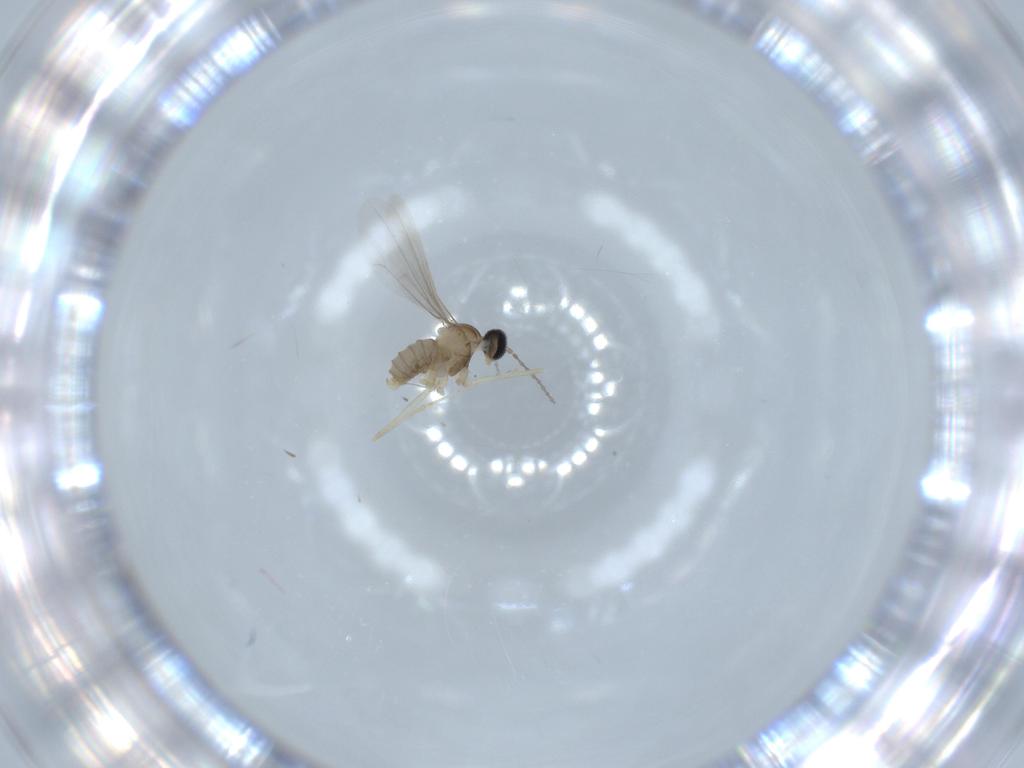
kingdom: Animalia
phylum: Arthropoda
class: Insecta
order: Diptera
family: Cecidomyiidae
